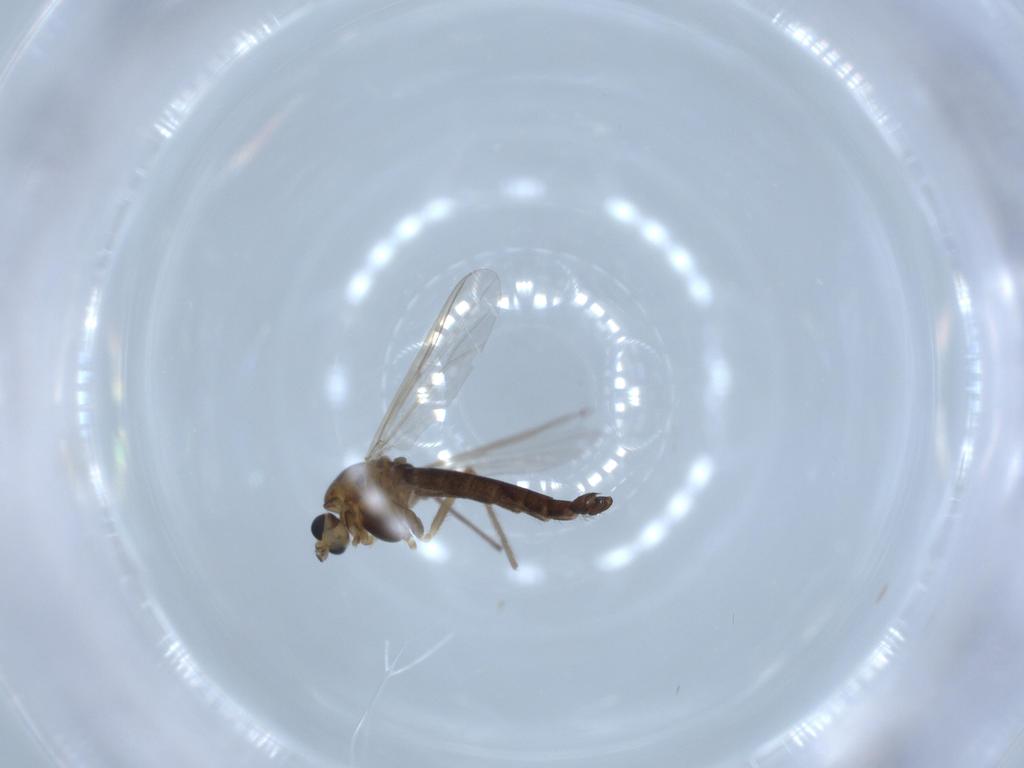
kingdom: Animalia
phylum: Arthropoda
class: Insecta
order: Diptera
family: Chironomidae
